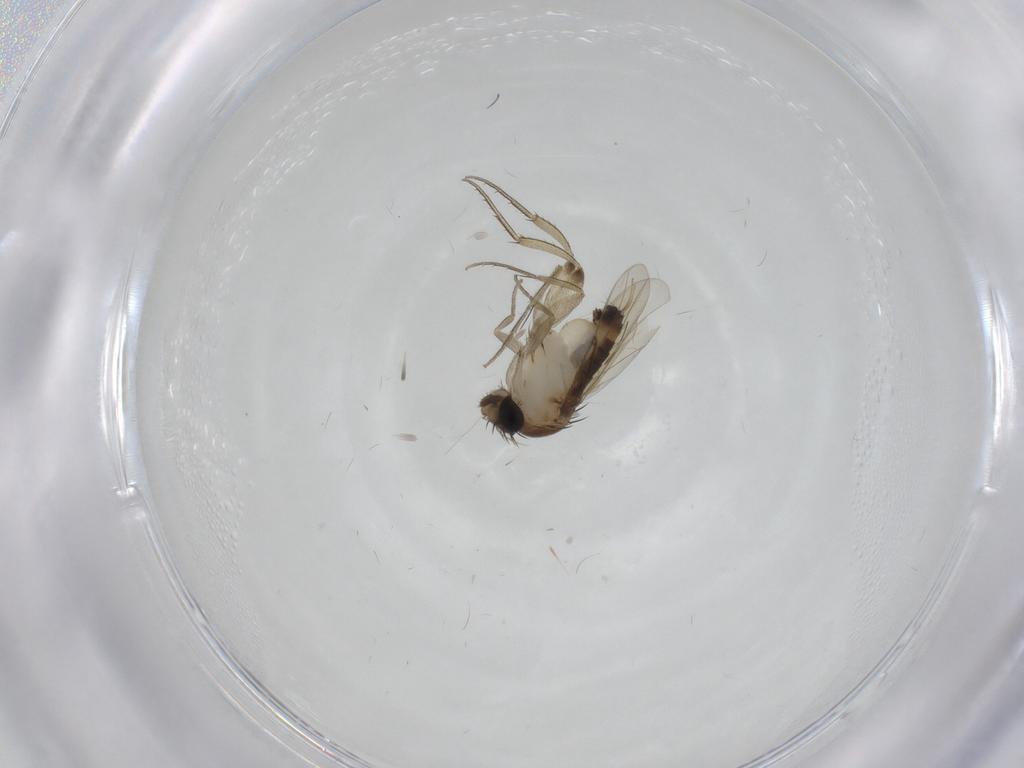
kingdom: Animalia
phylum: Arthropoda
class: Insecta
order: Diptera
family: Phoridae
